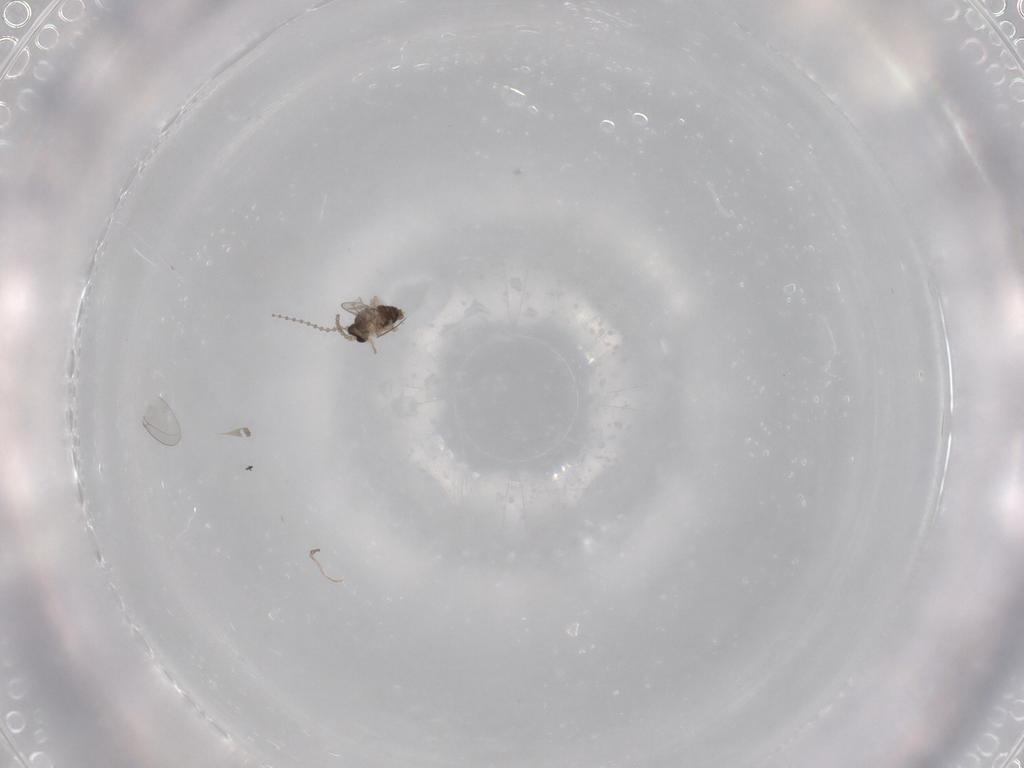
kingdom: Animalia
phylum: Arthropoda
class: Insecta
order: Diptera
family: Cecidomyiidae
